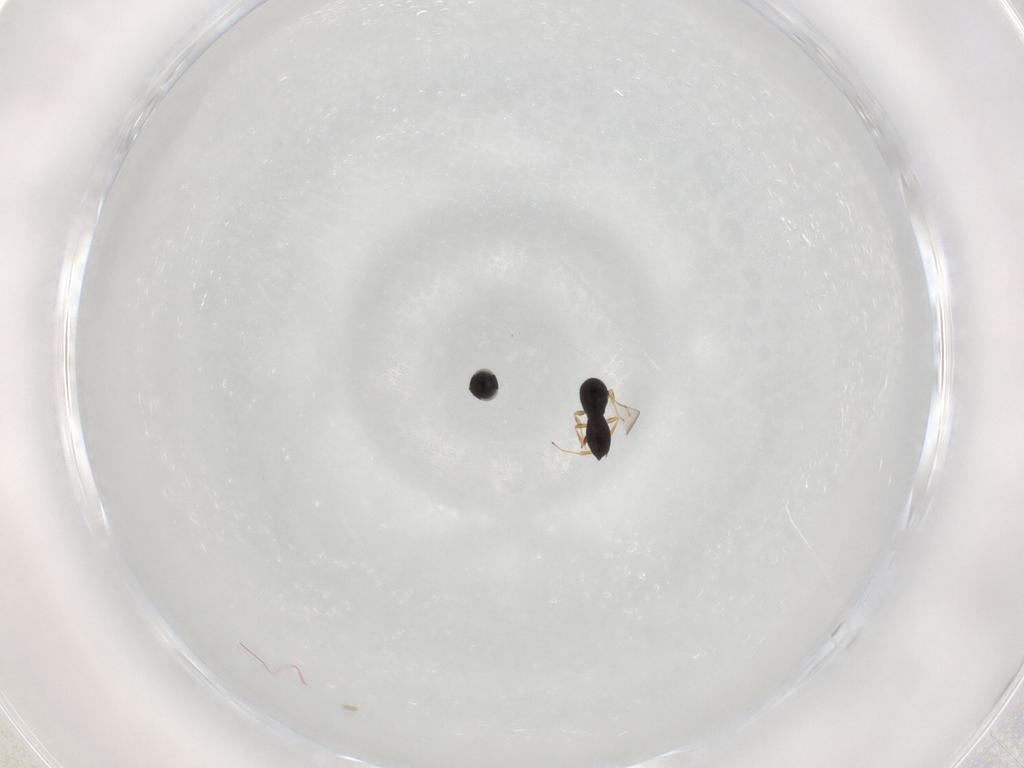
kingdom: Animalia
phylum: Arthropoda
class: Insecta
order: Hymenoptera
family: Scelionidae
